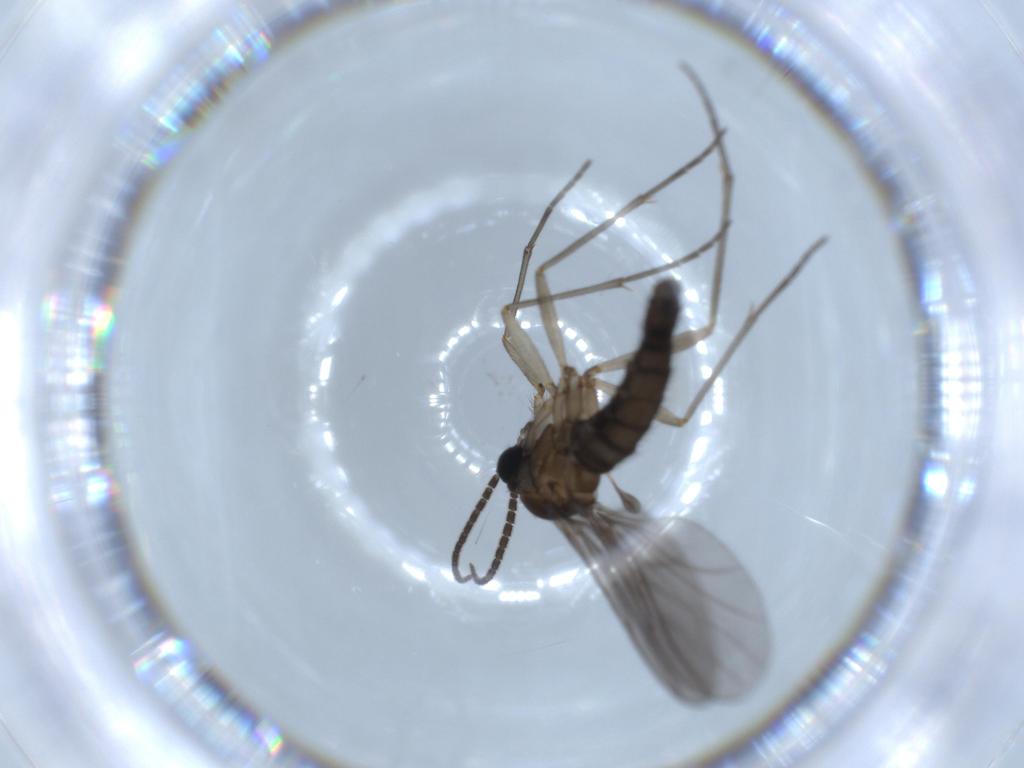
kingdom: Animalia
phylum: Arthropoda
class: Insecta
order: Diptera
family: Sciaridae
